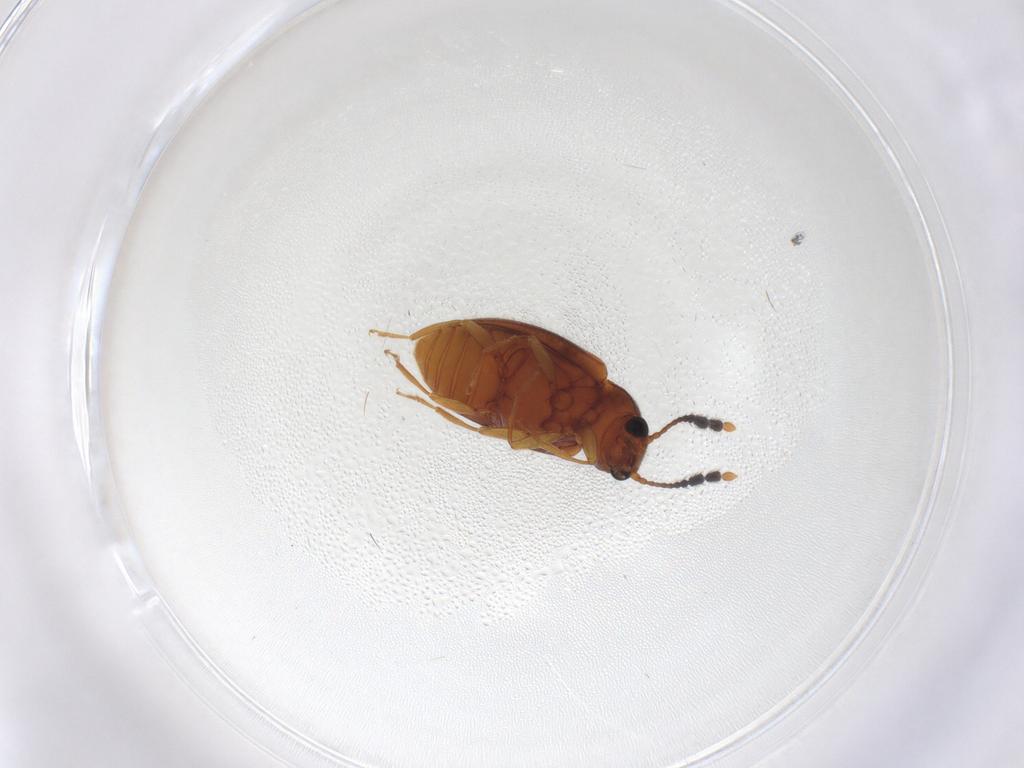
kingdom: Animalia
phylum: Arthropoda
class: Insecta
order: Coleoptera
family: Erotylidae
